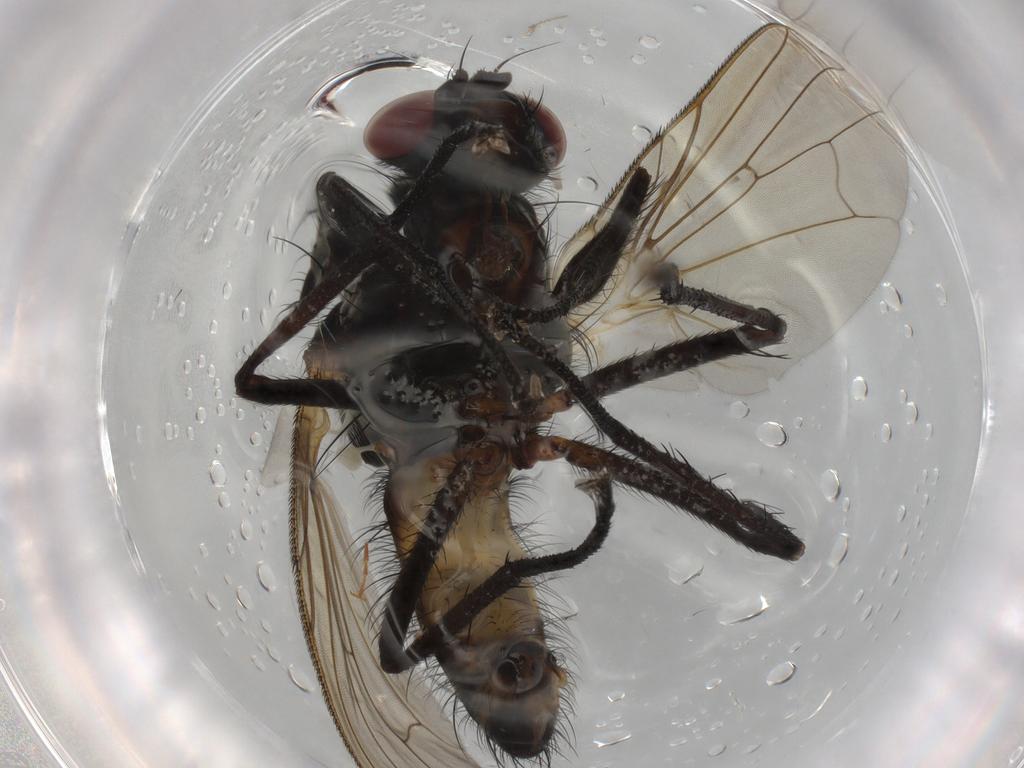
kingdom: Animalia
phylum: Arthropoda
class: Insecta
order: Diptera
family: Anthomyiidae
